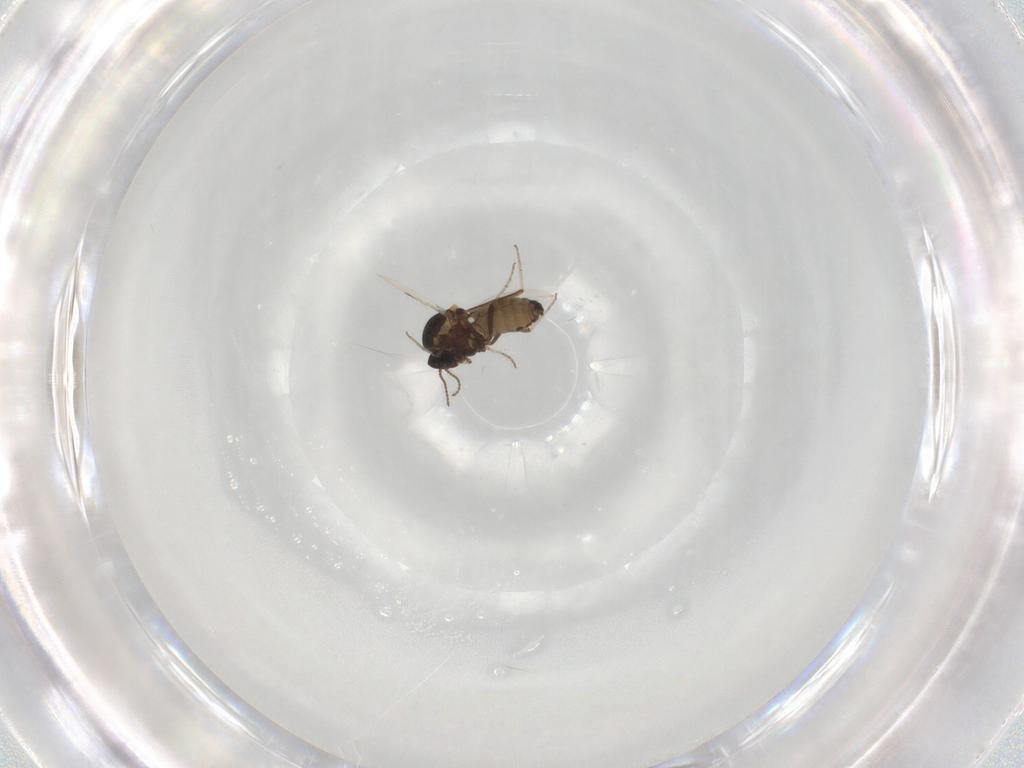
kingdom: Animalia
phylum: Arthropoda
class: Insecta
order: Diptera
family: Ceratopogonidae
